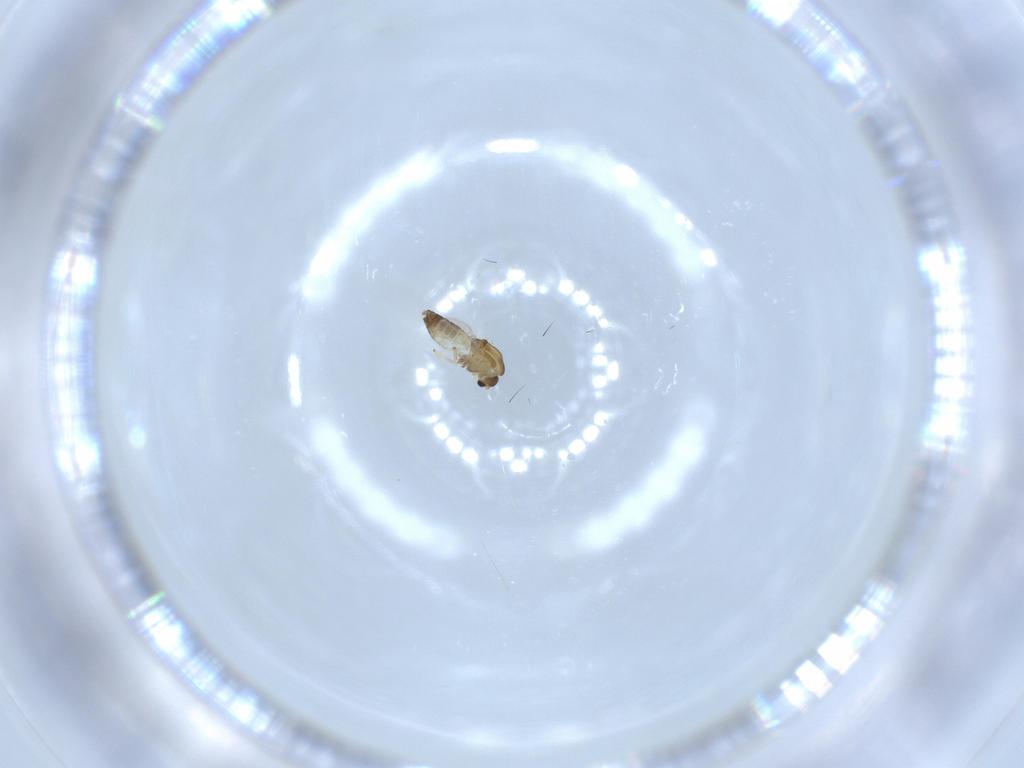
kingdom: Animalia
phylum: Arthropoda
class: Insecta
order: Diptera
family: Chironomidae
